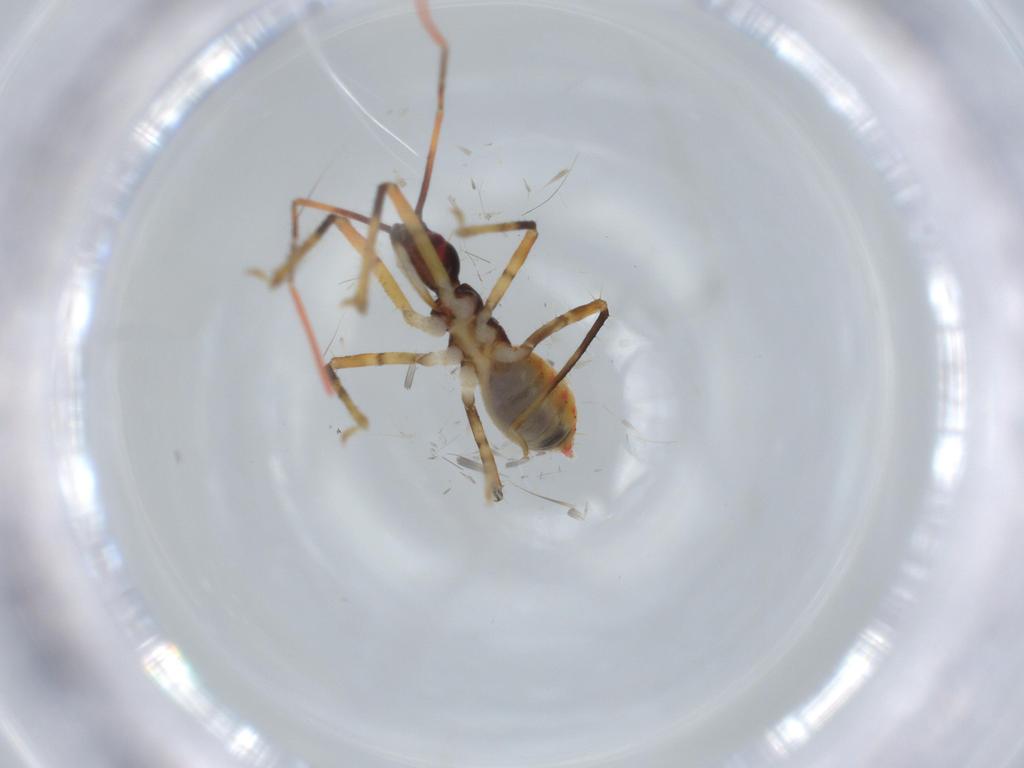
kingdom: Animalia
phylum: Arthropoda
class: Insecta
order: Hemiptera
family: Reduviidae
